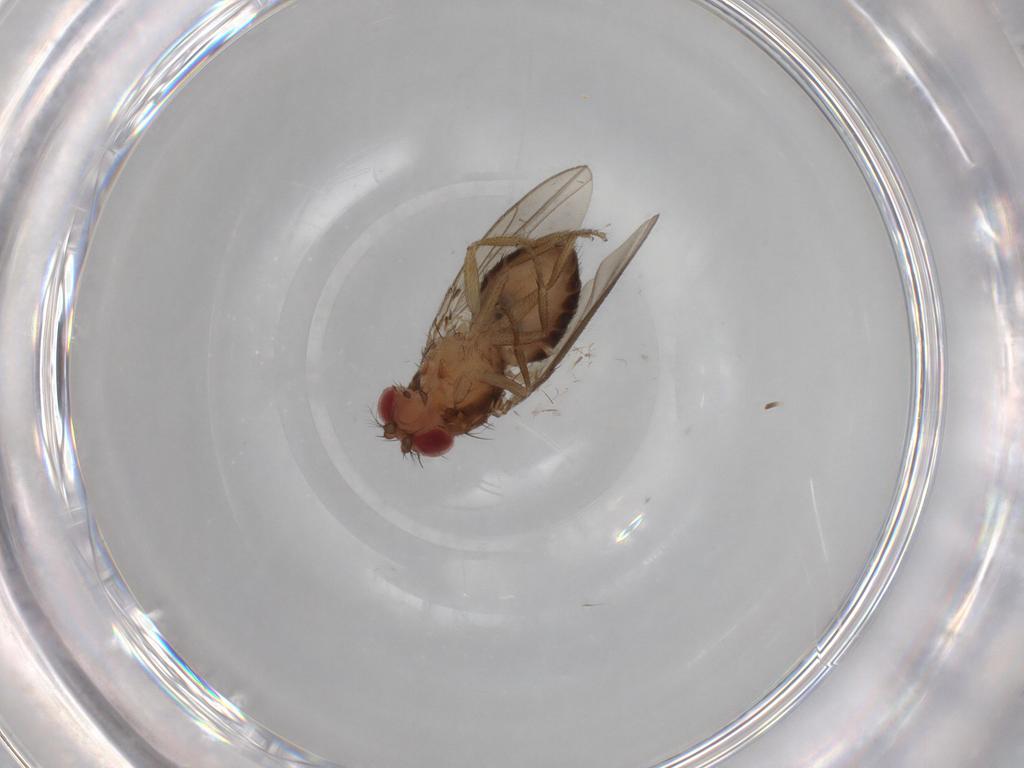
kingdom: Animalia
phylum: Arthropoda
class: Insecta
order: Diptera
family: Drosophilidae
